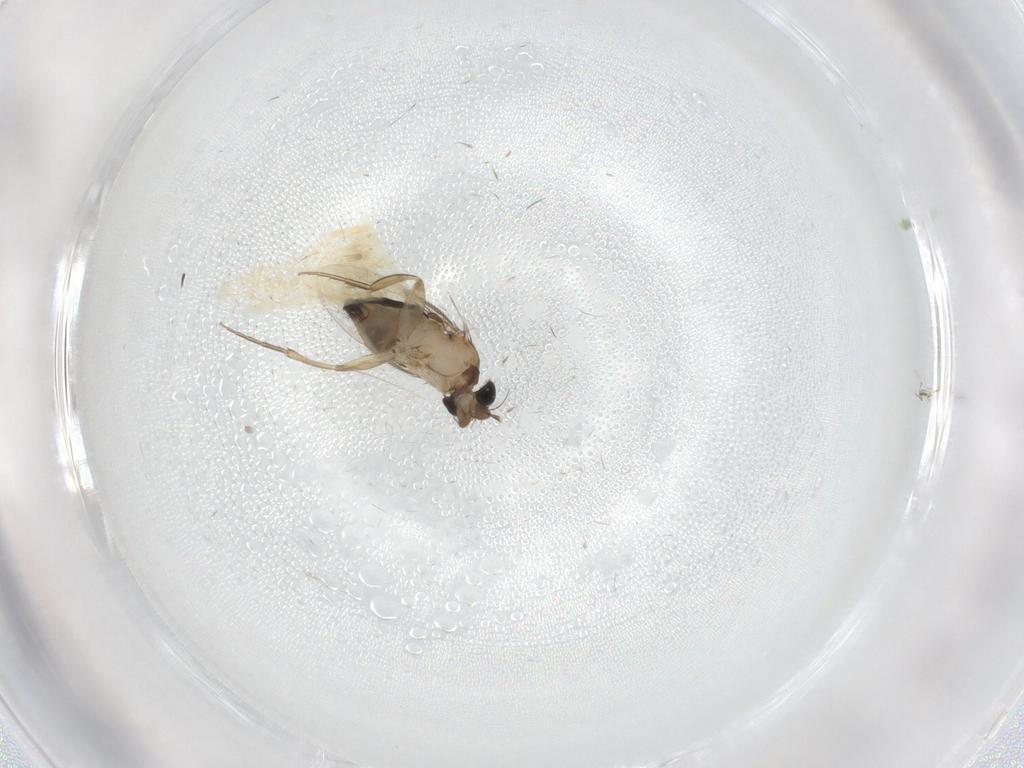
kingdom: Animalia
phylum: Arthropoda
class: Insecta
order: Diptera
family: Phoridae
